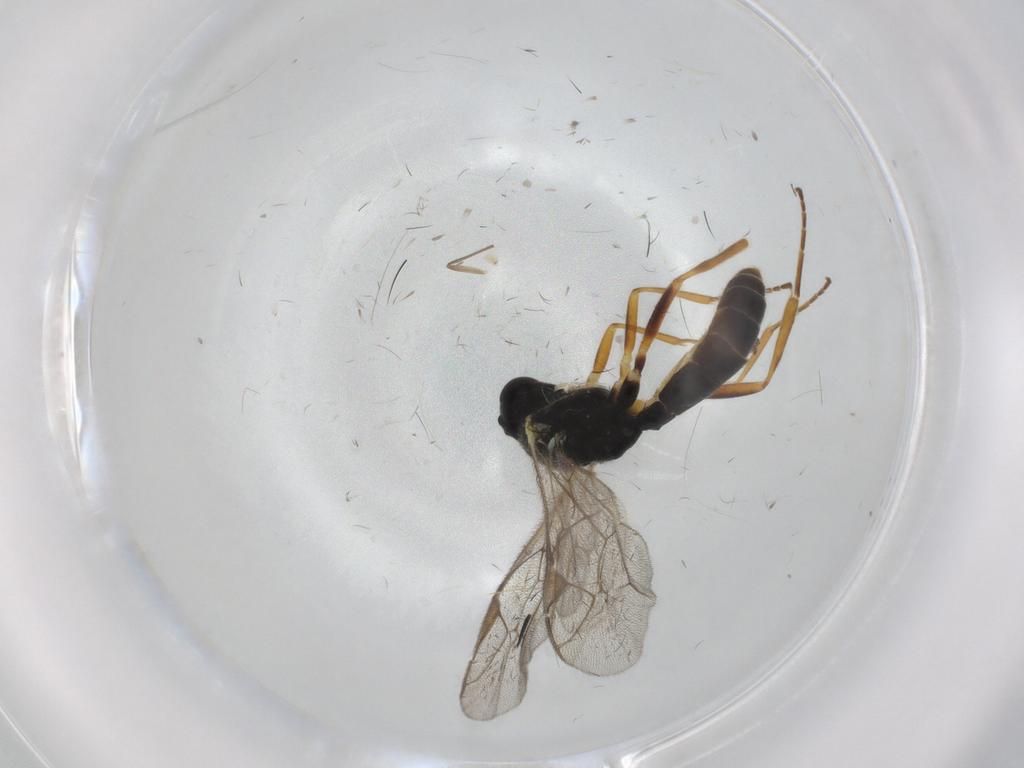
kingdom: Animalia
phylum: Arthropoda
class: Insecta
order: Hymenoptera
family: Ichneumonidae
